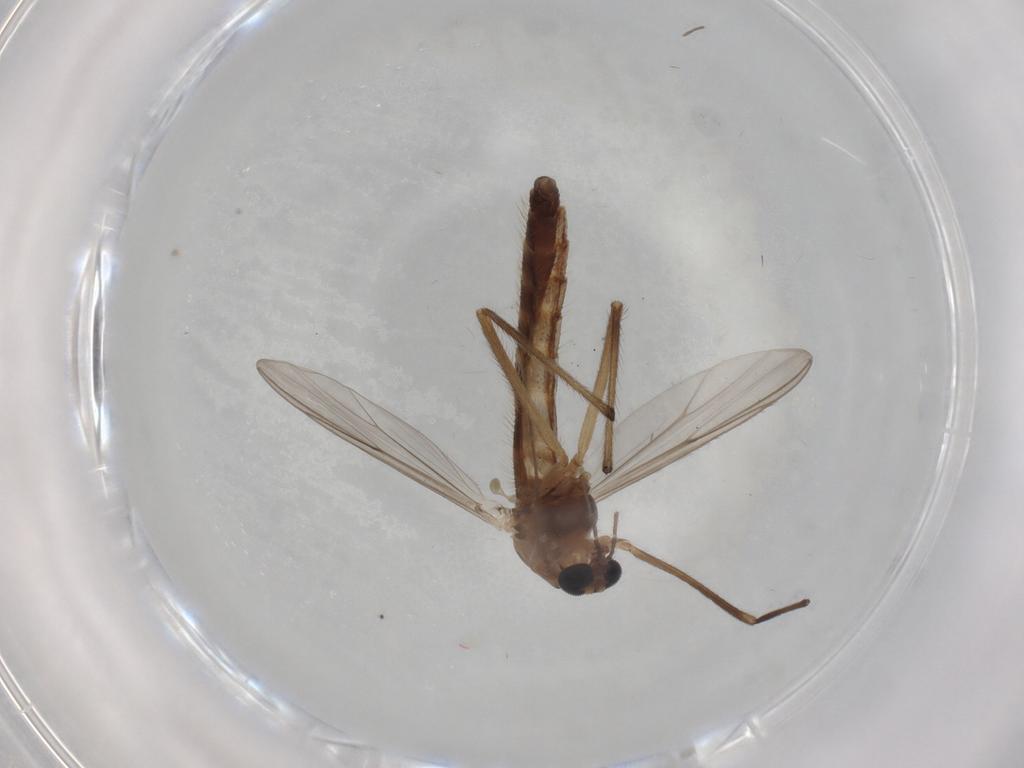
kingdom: Animalia
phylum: Arthropoda
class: Insecta
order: Diptera
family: Chironomidae
